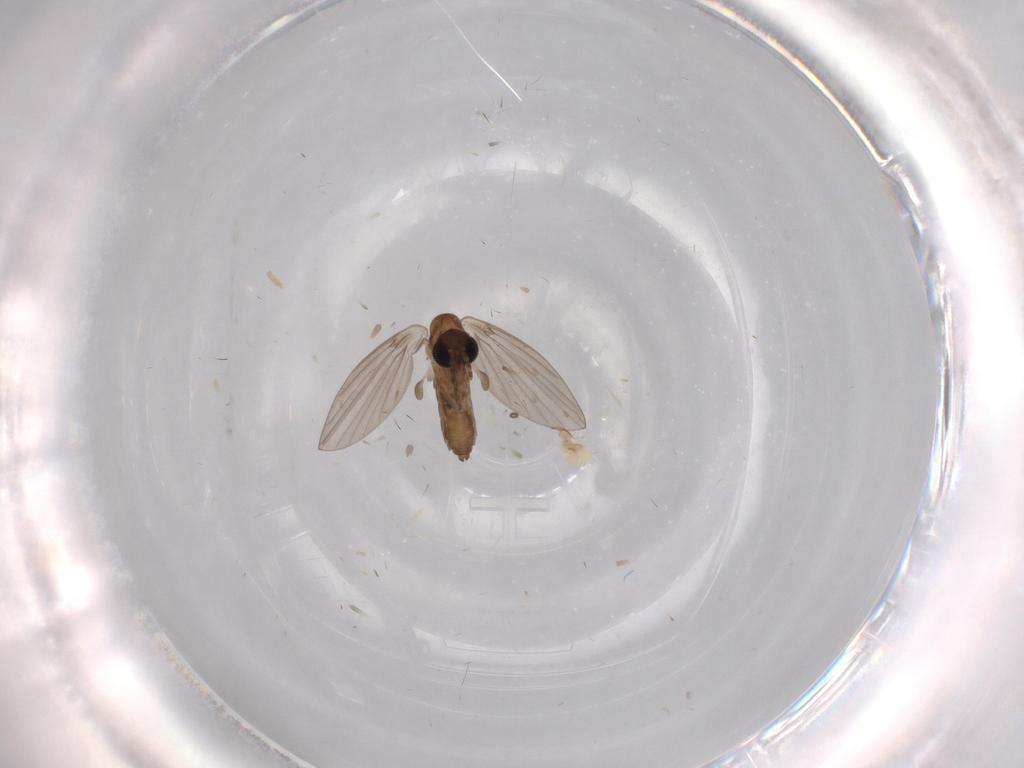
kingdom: Animalia
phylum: Arthropoda
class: Insecta
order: Diptera
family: Phoridae
